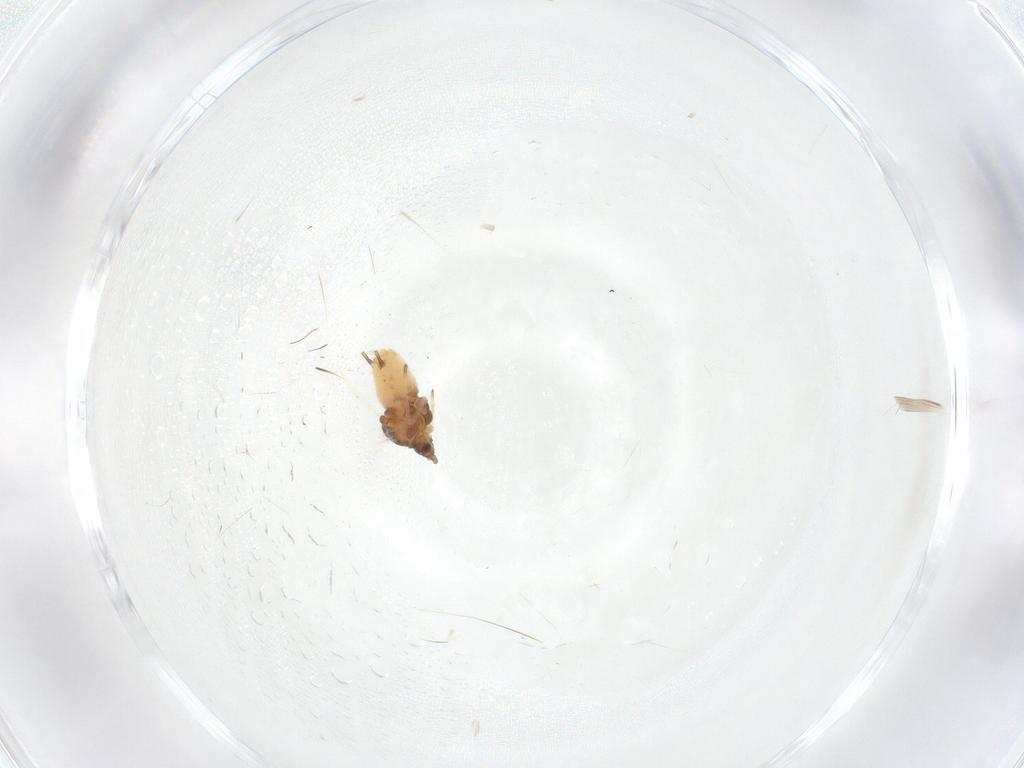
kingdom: Animalia
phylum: Arthropoda
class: Insecta
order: Hemiptera
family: Aphididae
